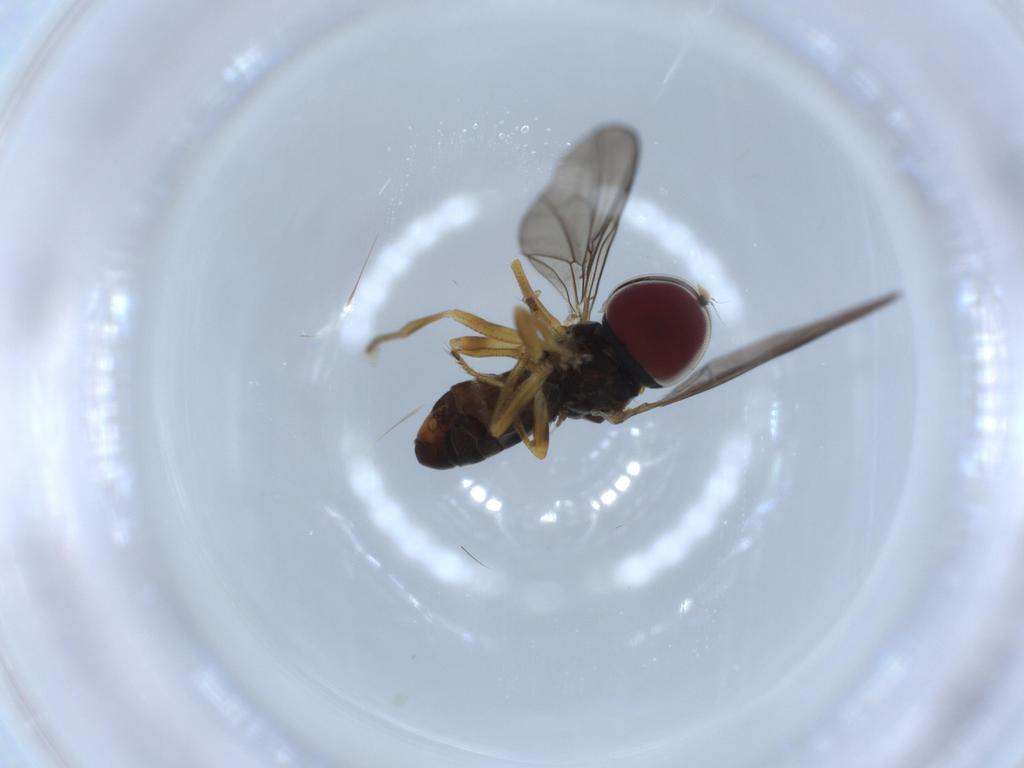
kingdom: Animalia
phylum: Arthropoda
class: Insecta
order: Diptera
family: Pipunculidae
